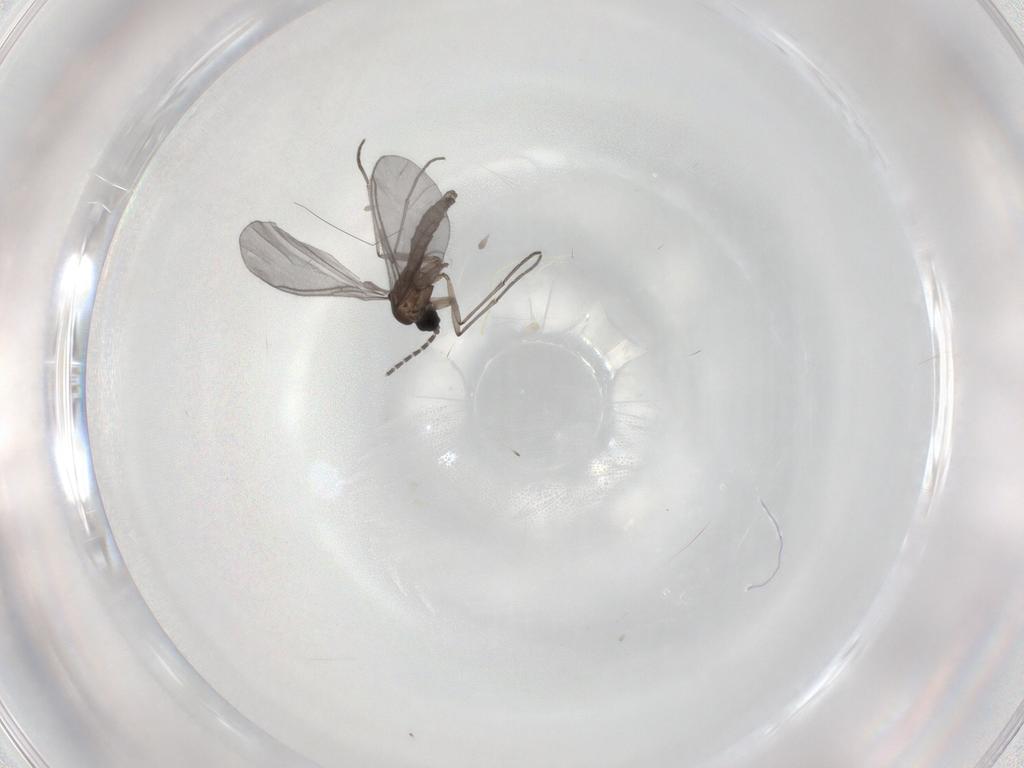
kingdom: Animalia
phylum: Arthropoda
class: Insecta
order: Diptera
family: Sciaridae
